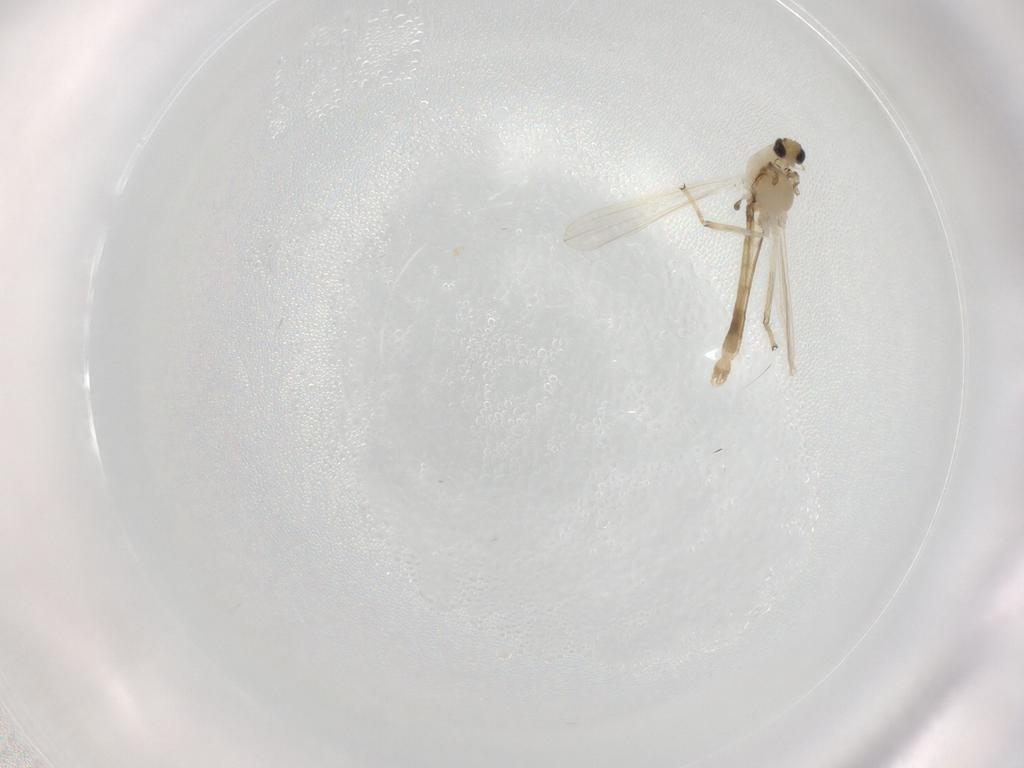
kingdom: Animalia
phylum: Arthropoda
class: Insecta
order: Diptera
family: Chironomidae
